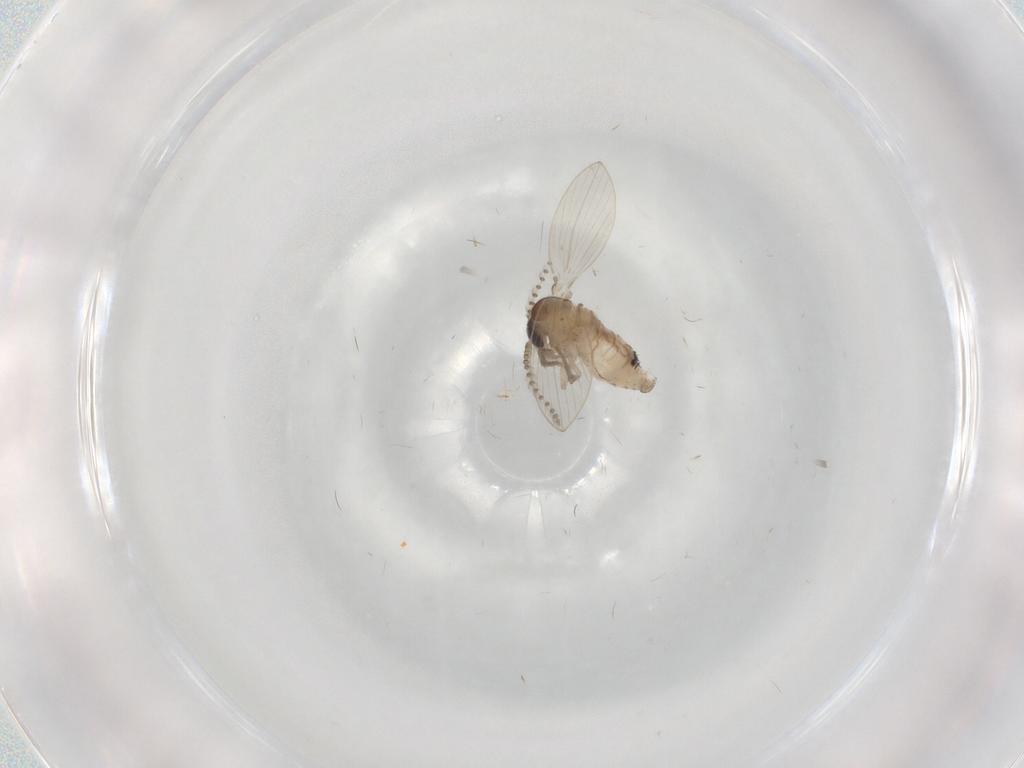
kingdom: Animalia
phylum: Arthropoda
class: Insecta
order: Diptera
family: Psychodidae
